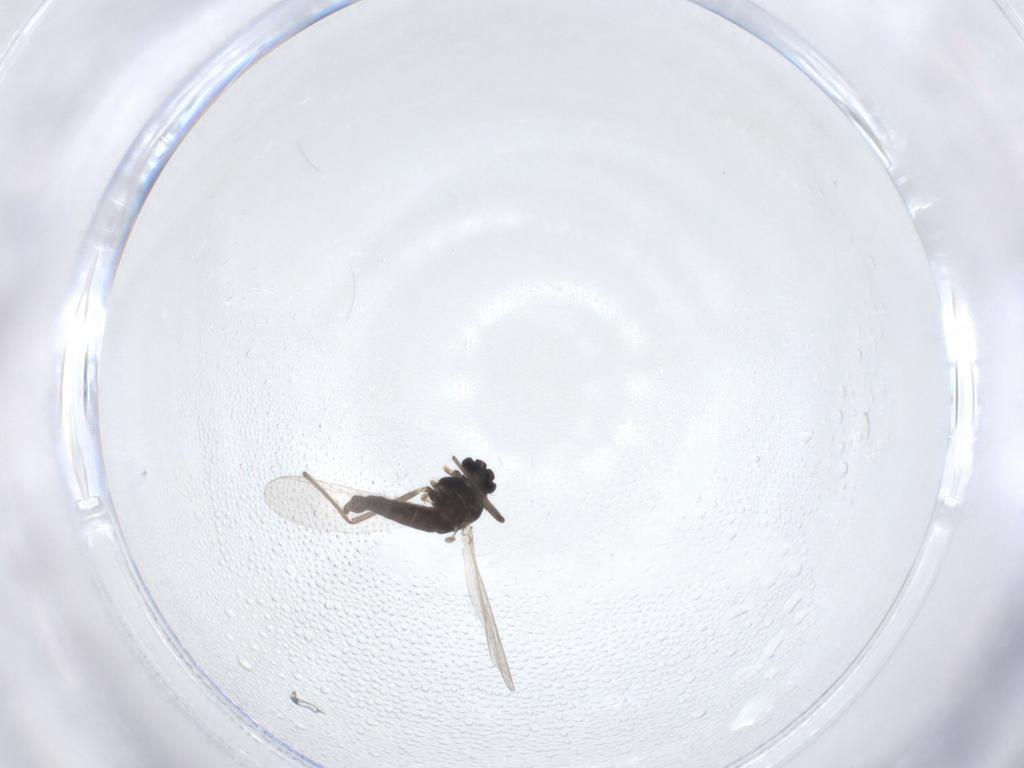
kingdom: Animalia
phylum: Arthropoda
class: Insecta
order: Diptera
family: Chironomidae
